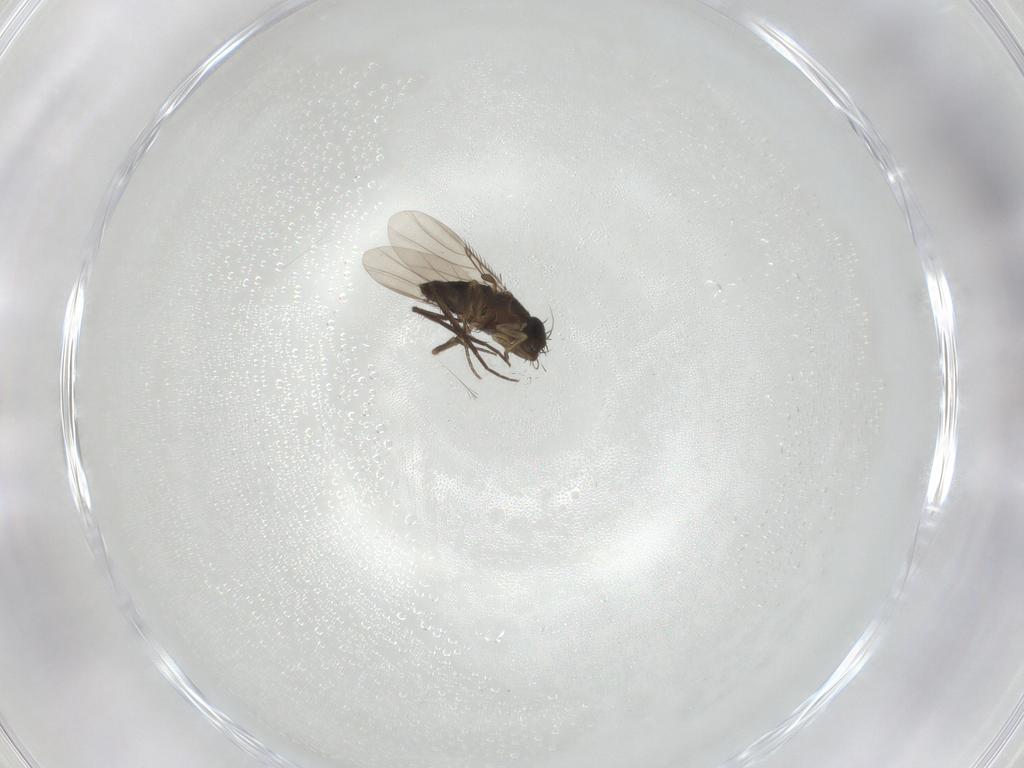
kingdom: Animalia
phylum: Arthropoda
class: Insecta
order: Diptera
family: Phoridae
